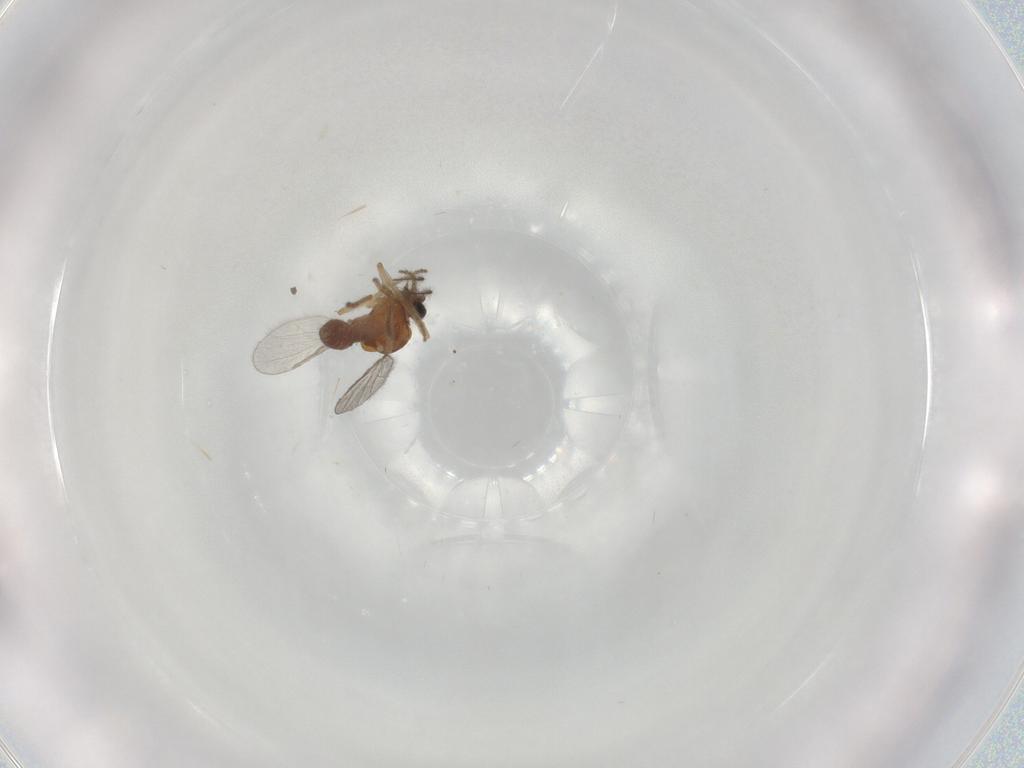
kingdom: Animalia
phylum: Arthropoda
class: Insecta
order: Diptera
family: Ceratopogonidae
